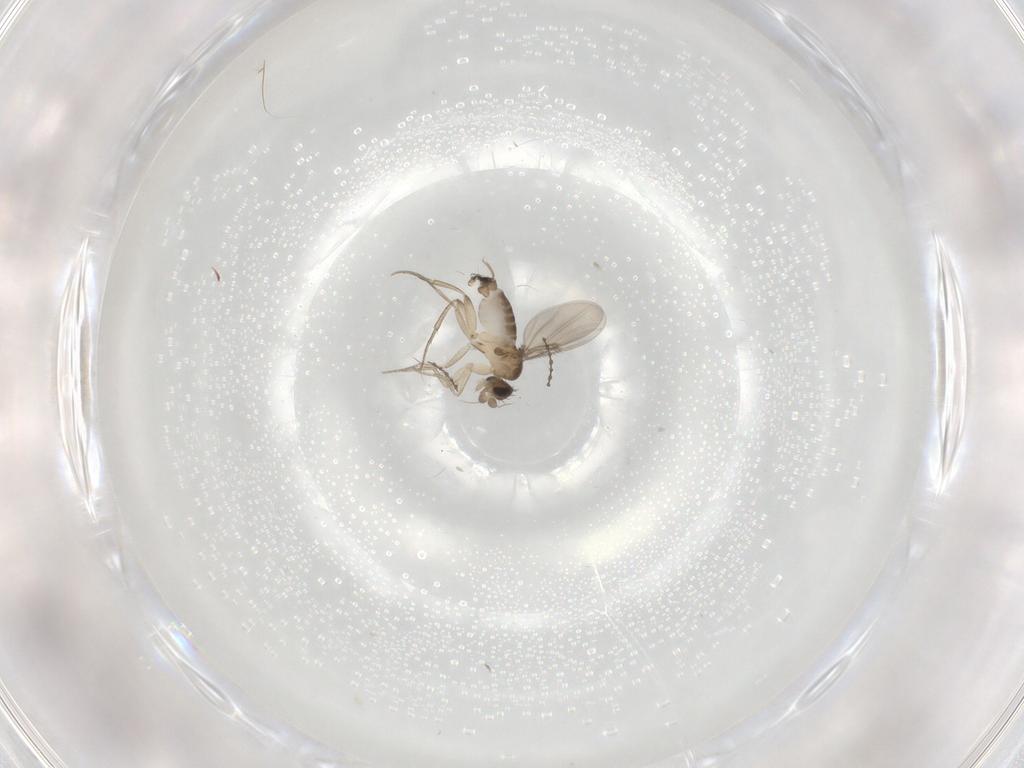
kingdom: Animalia
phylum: Arthropoda
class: Insecta
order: Diptera
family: Phoridae
